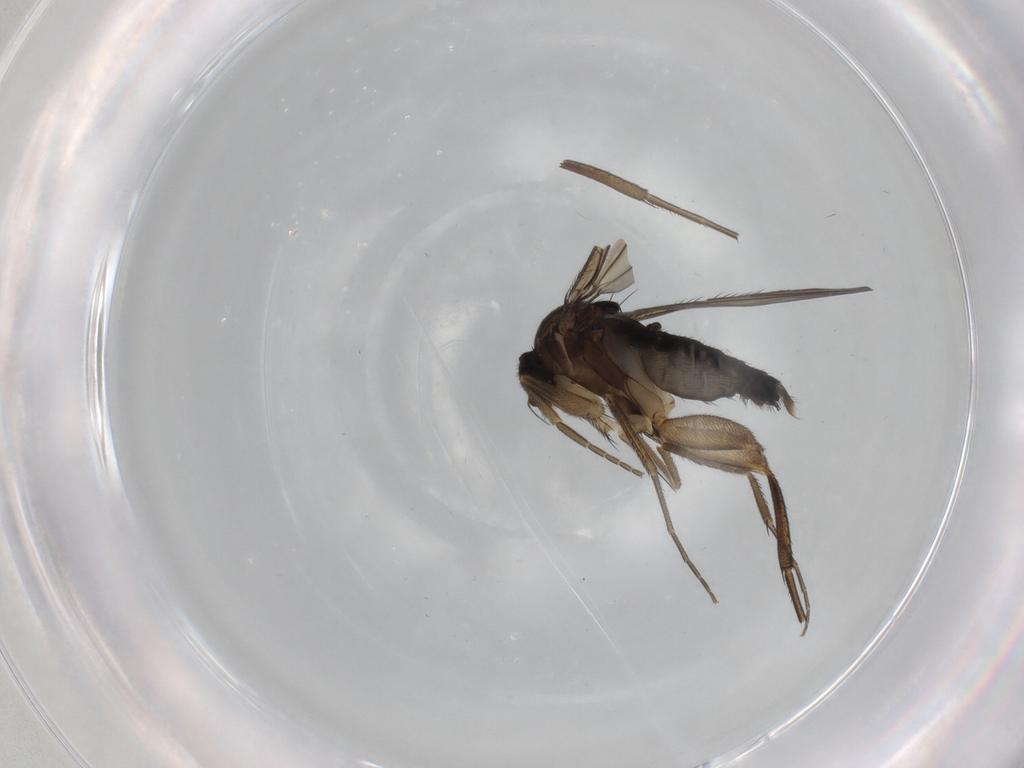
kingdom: Animalia
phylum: Arthropoda
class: Insecta
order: Diptera
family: Phoridae
